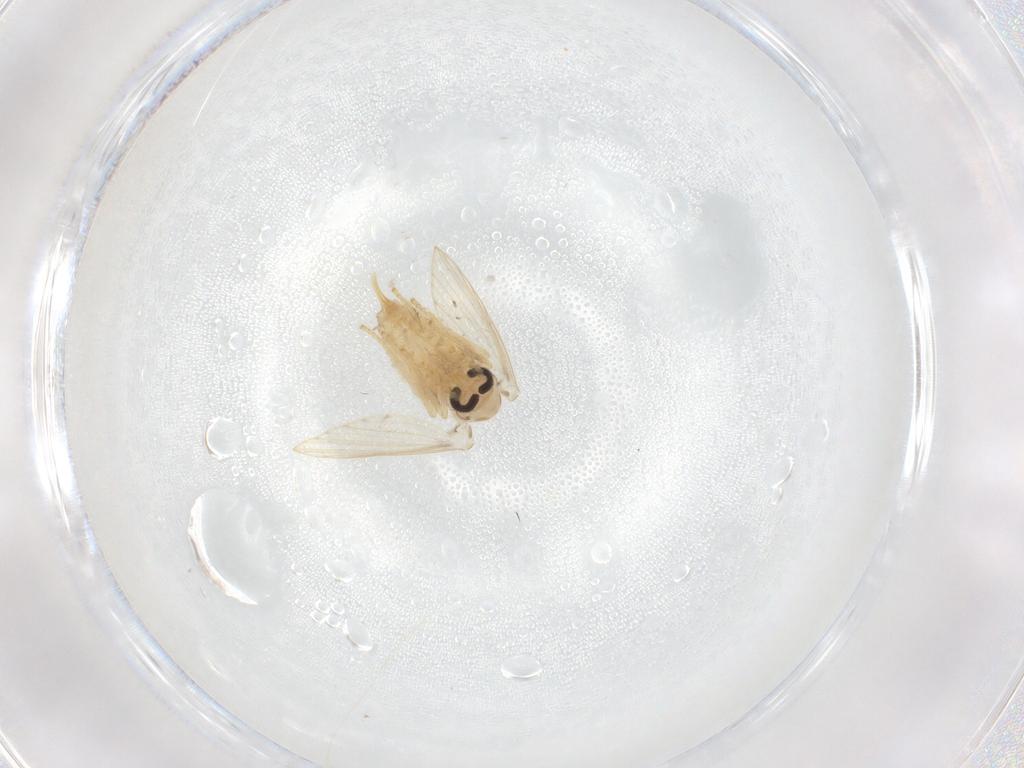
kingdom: Animalia
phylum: Arthropoda
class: Insecta
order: Diptera
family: Psychodidae
